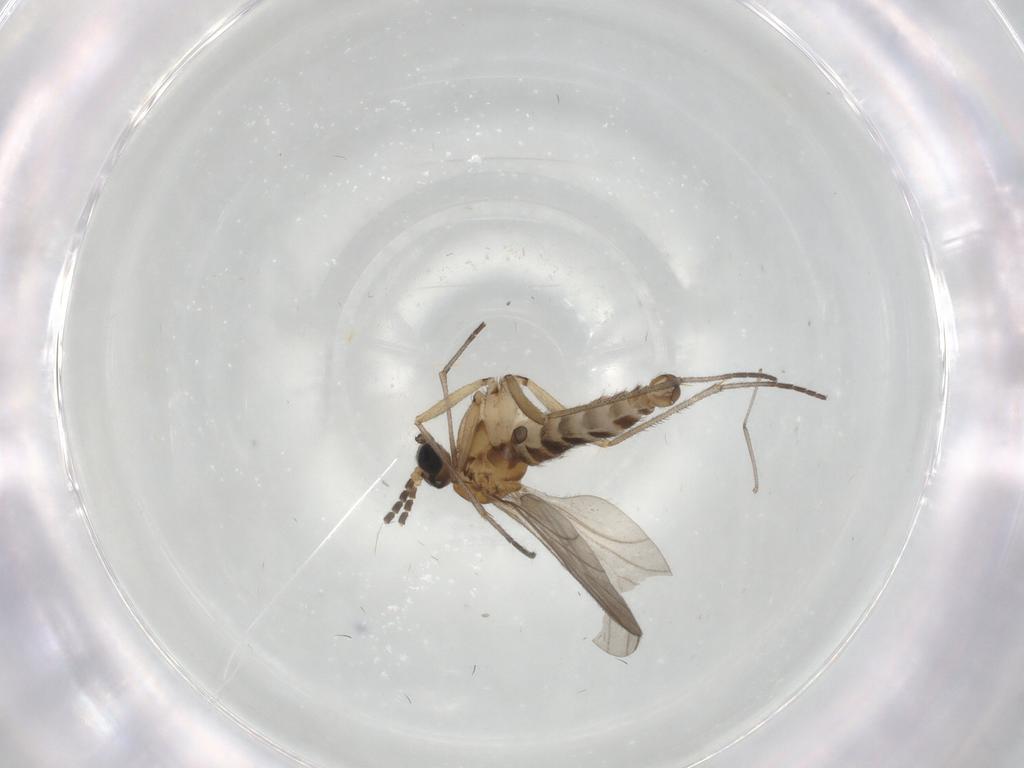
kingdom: Animalia
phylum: Arthropoda
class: Insecta
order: Diptera
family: Sciaridae
